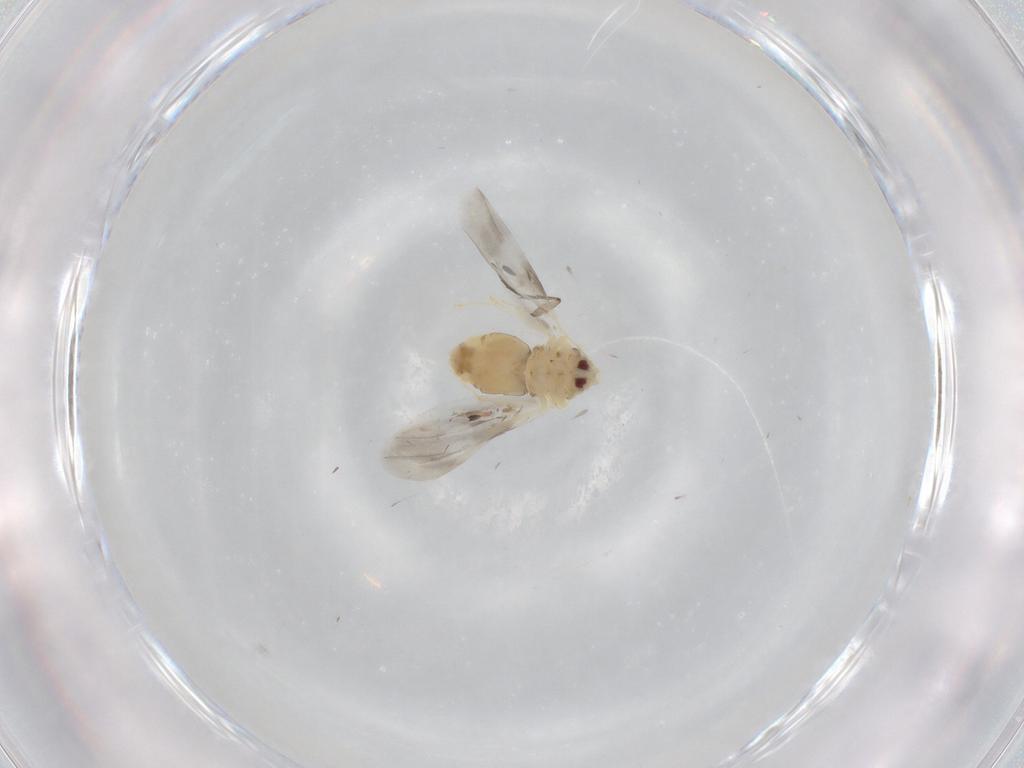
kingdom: Animalia
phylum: Arthropoda
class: Insecta
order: Hemiptera
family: Aleyrodidae
